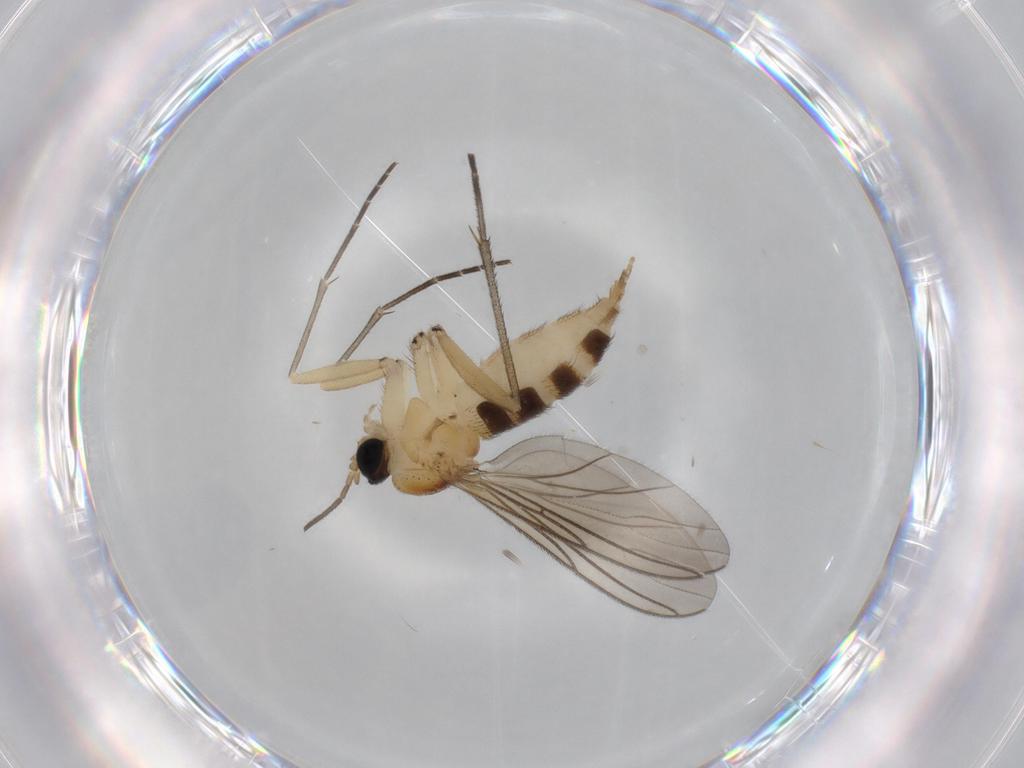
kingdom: Animalia
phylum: Arthropoda
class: Insecta
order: Diptera
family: Sciaridae
